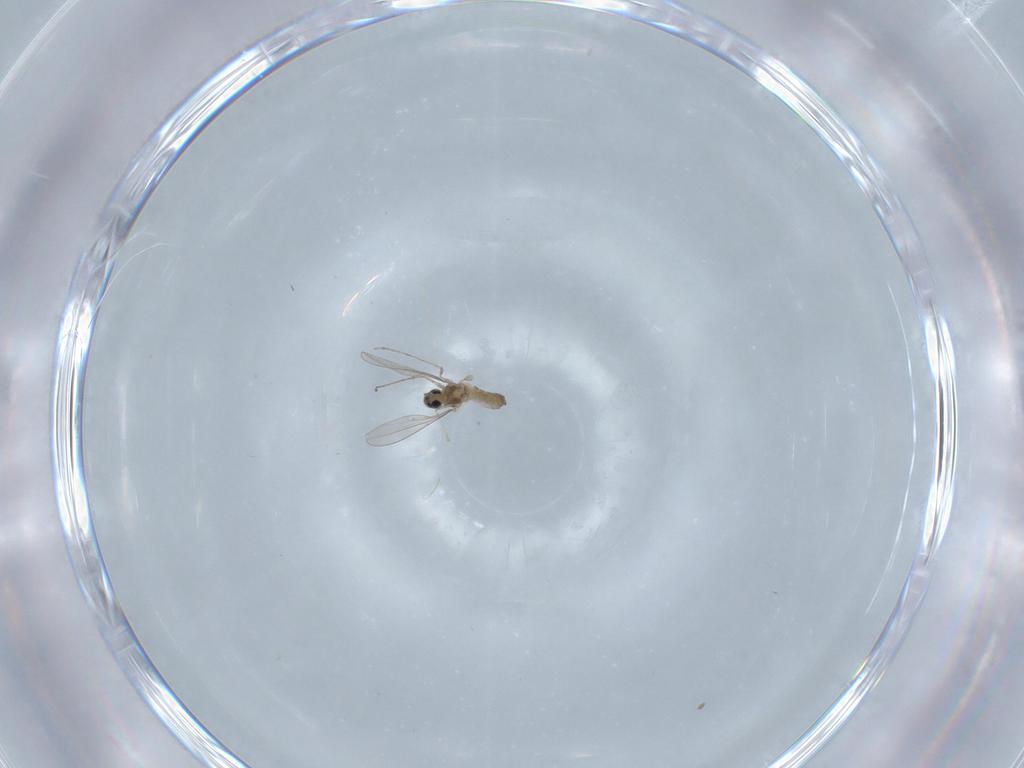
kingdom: Animalia
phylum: Arthropoda
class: Insecta
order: Diptera
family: Cecidomyiidae
